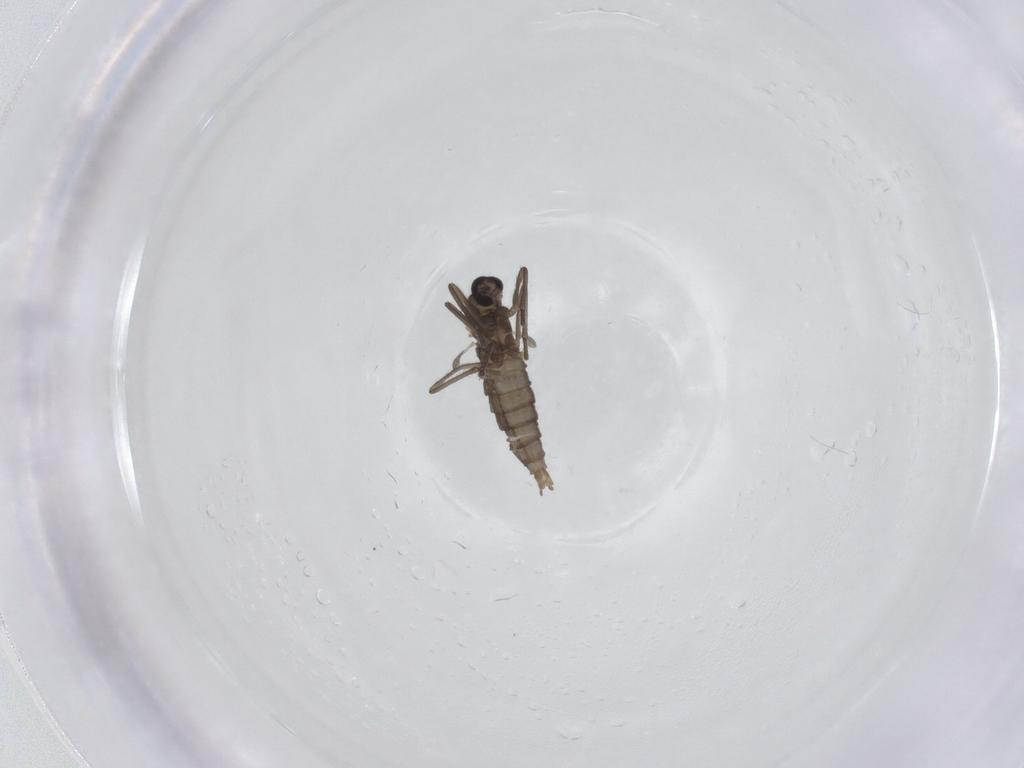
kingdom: Animalia
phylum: Arthropoda
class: Insecta
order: Diptera
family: Cecidomyiidae
